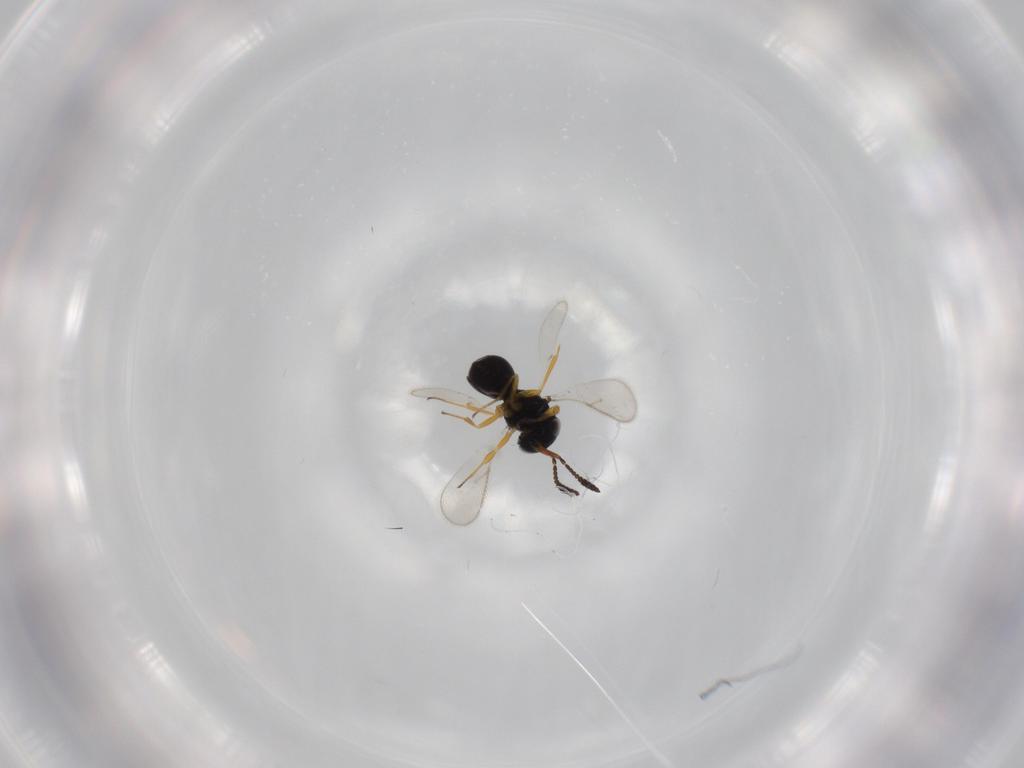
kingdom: Animalia
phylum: Arthropoda
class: Insecta
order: Hymenoptera
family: Scelionidae
